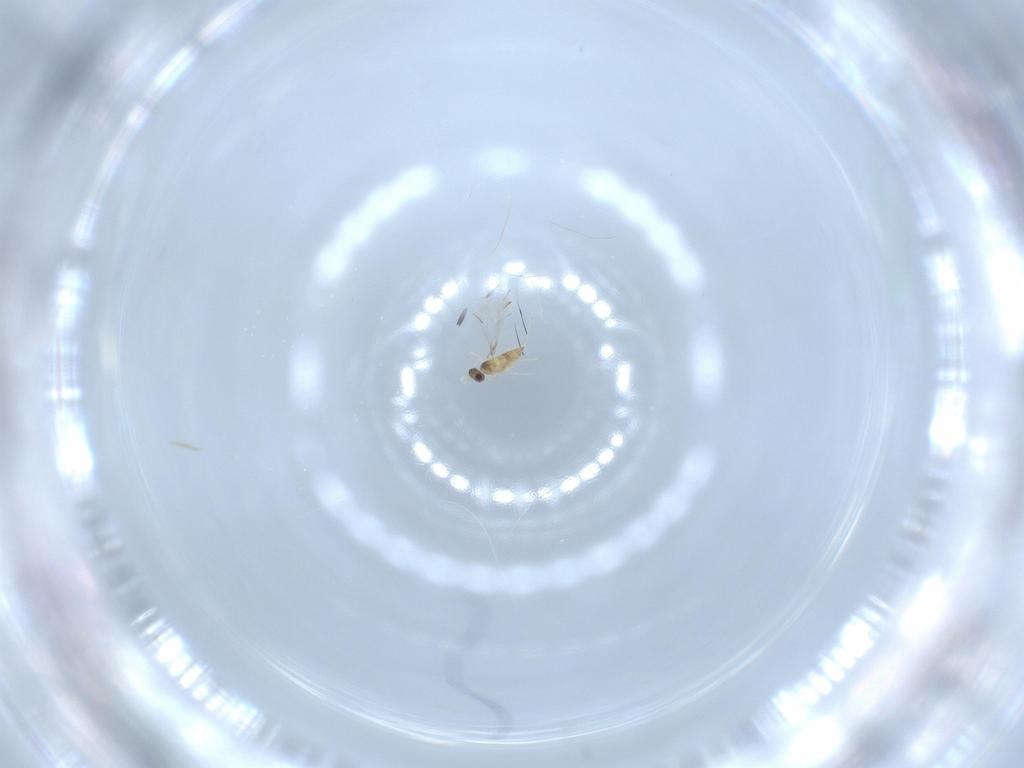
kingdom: Animalia
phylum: Arthropoda
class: Insecta
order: Hymenoptera
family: Mymaridae
